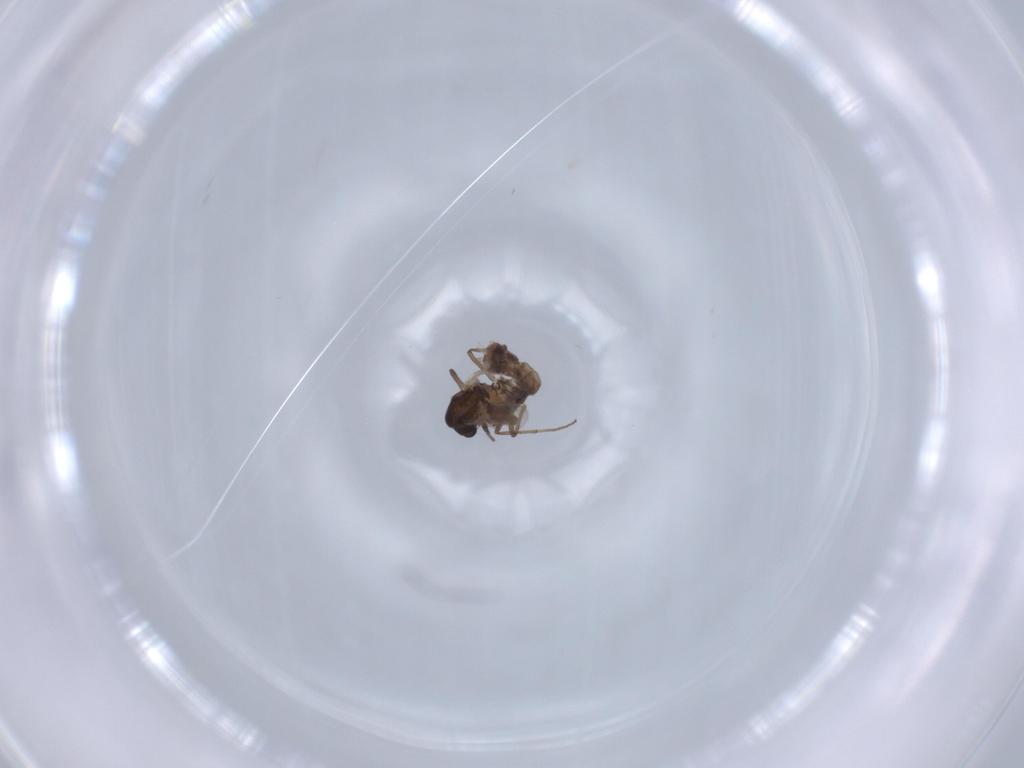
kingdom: Animalia
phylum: Arthropoda
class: Insecta
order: Diptera
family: Chironomidae
